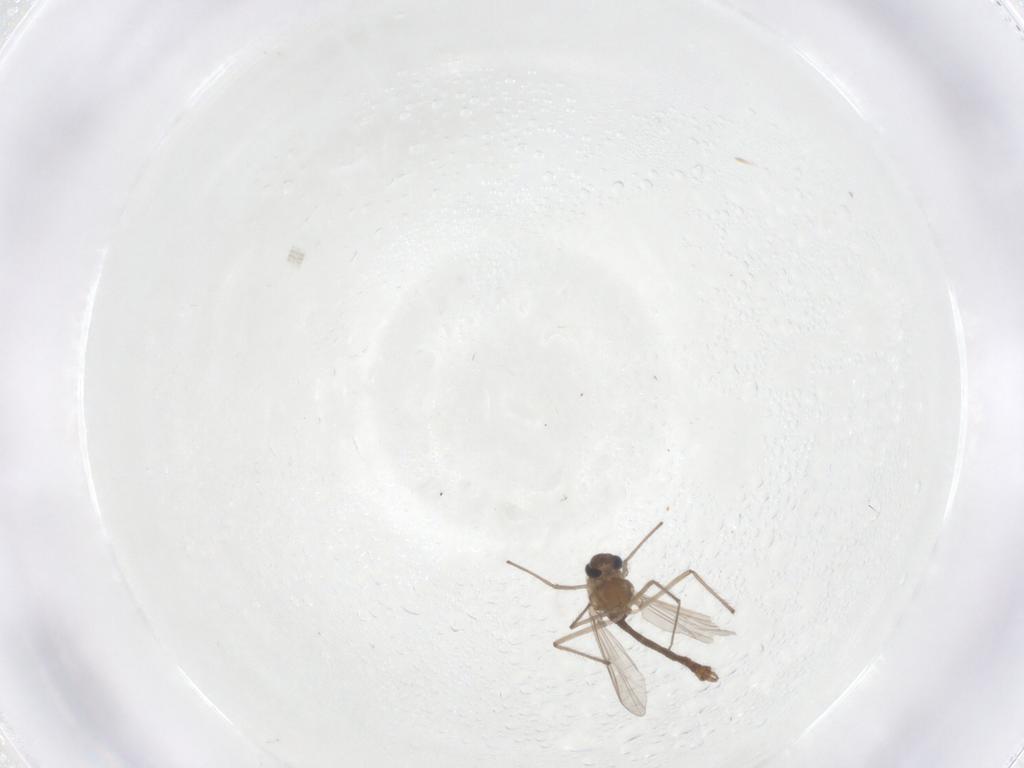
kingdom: Animalia
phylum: Arthropoda
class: Insecta
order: Diptera
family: Chironomidae
